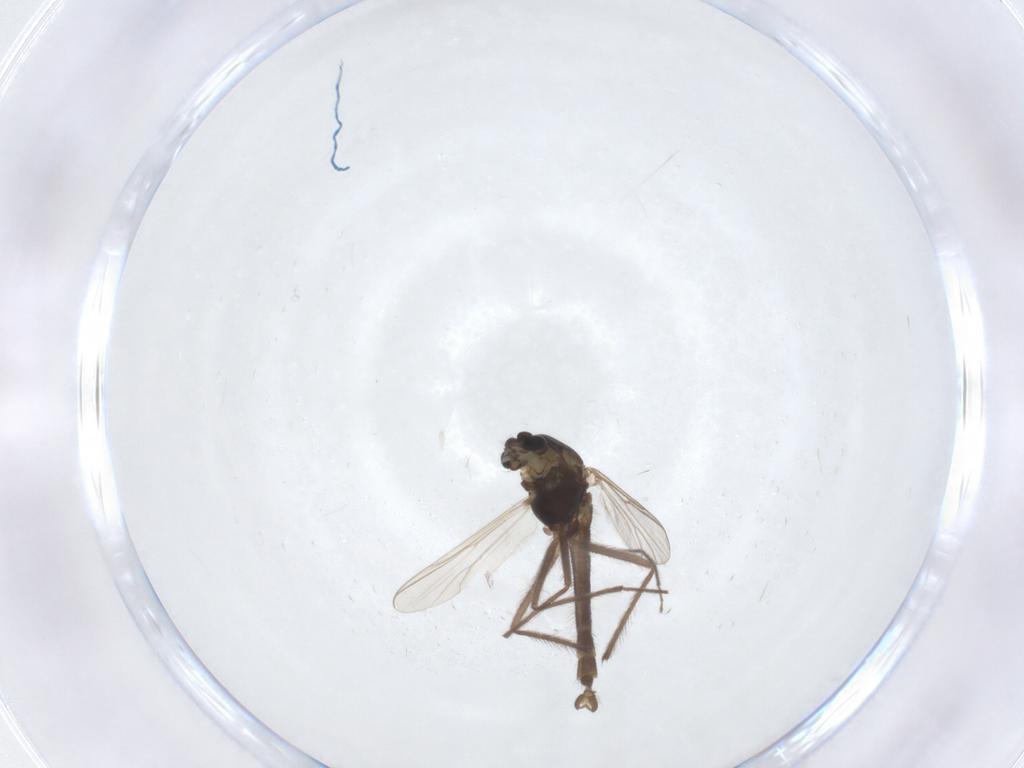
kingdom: Animalia
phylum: Arthropoda
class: Insecta
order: Diptera
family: Chironomidae
